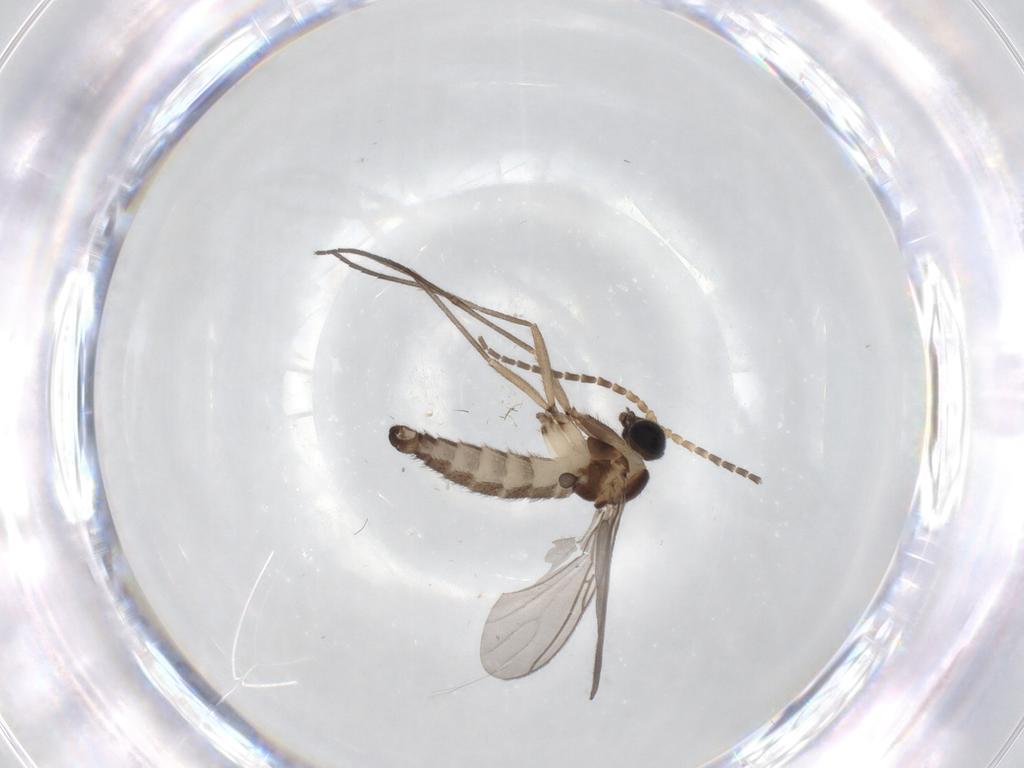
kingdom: Animalia
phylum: Arthropoda
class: Insecta
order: Diptera
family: Sciaridae
